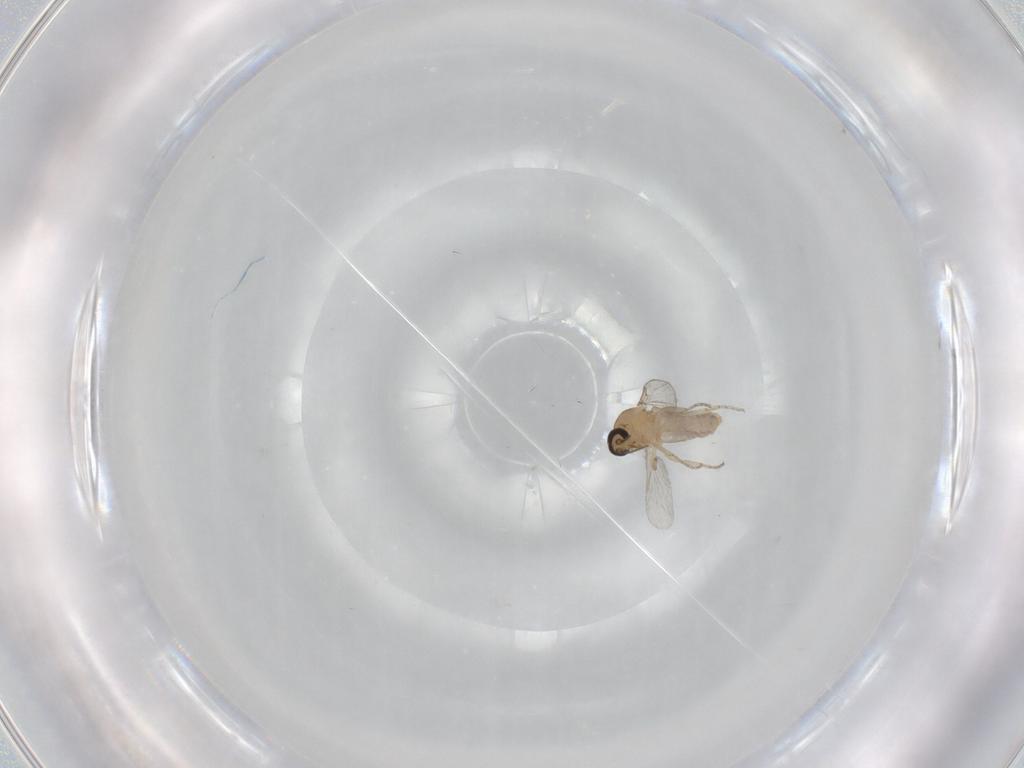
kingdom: Animalia
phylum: Arthropoda
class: Insecta
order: Diptera
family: Ceratopogonidae
